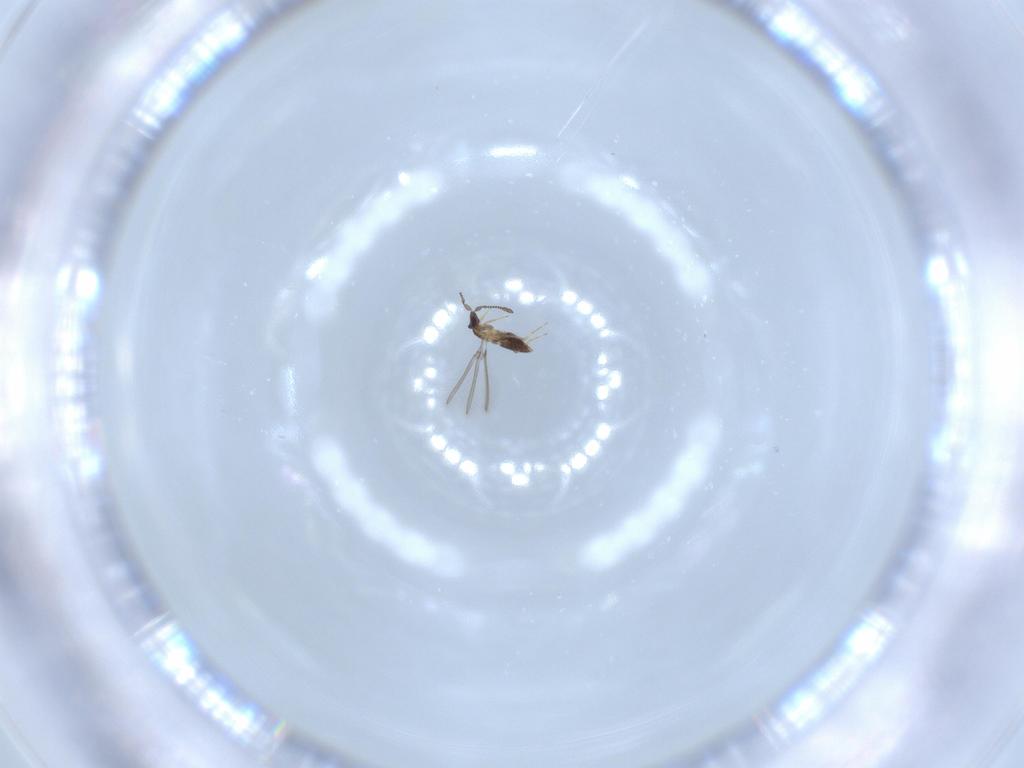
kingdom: Animalia
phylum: Arthropoda
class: Insecta
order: Hymenoptera
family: Mymaridae
